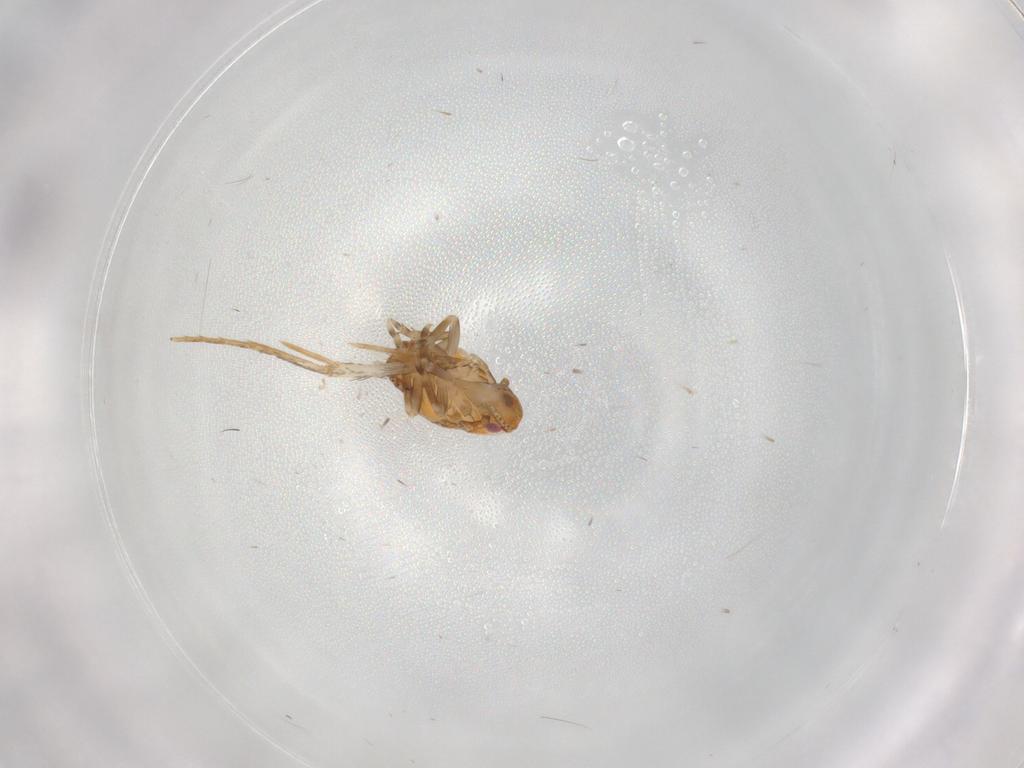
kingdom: Animalia
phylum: Arthropoda
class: Insecta
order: Hemiptera
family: Flatidae
